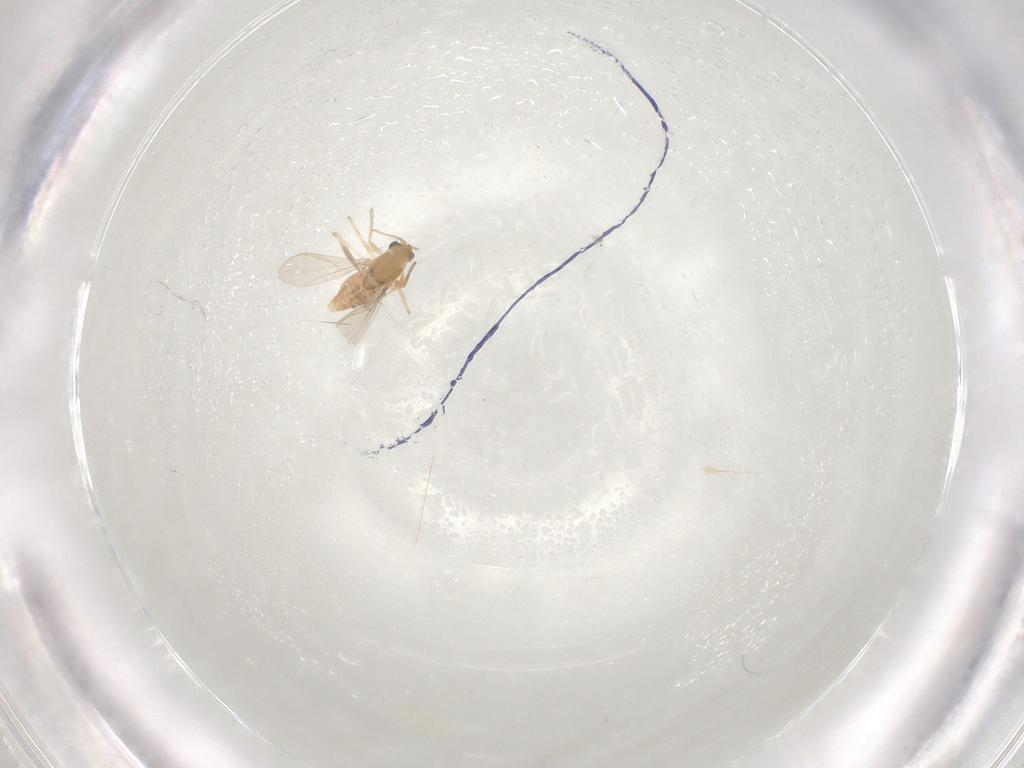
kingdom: Animalia
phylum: Arthropoda
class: Insecta
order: Diptera
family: Chironomidae
